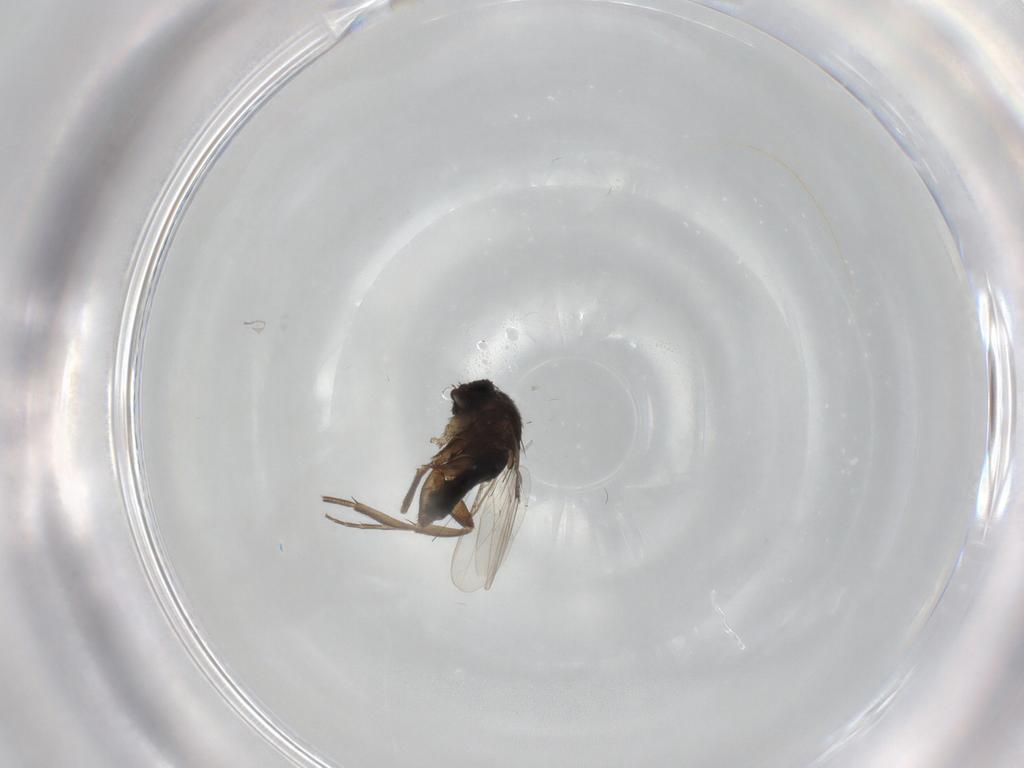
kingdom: Animalia
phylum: Arthropoda
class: Insecta
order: Diptera
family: Phoridae
